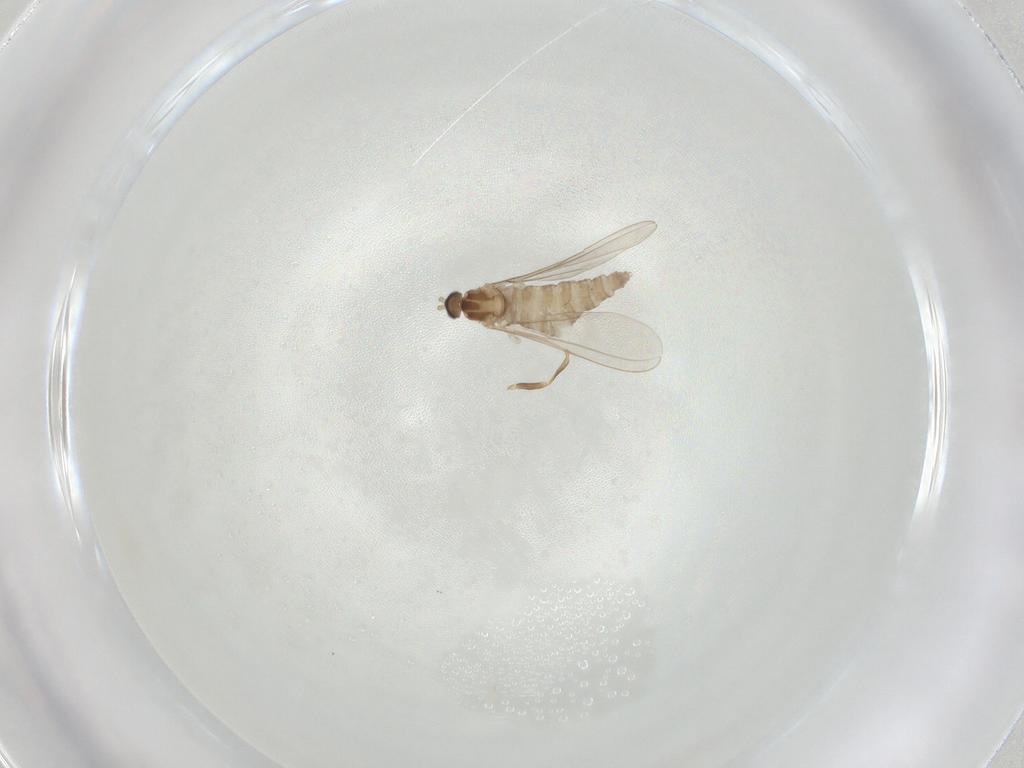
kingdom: Animalia
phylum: Arthropoda
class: Insecta
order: Diptera
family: Cecidomyiidae
